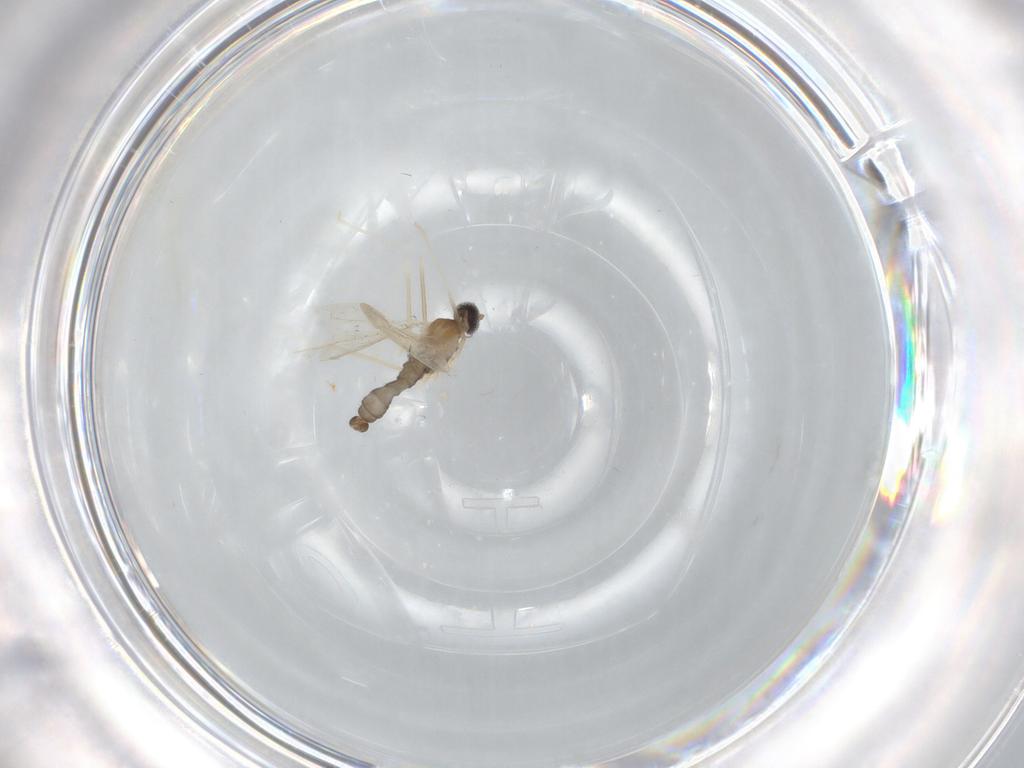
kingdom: Animalia
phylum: Arthropoda
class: Insecta
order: Diptera
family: Cecidomyiidae
